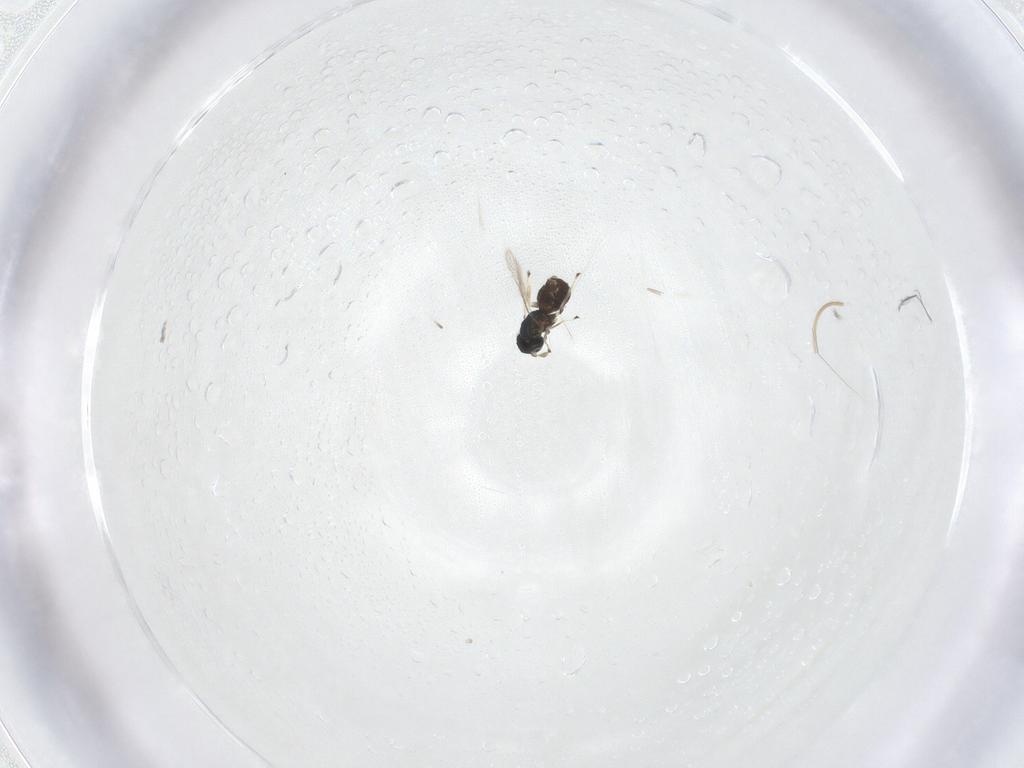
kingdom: Animalia
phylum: Arthropoda
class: Insecta
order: Hymenoptera
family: Eulophidae
